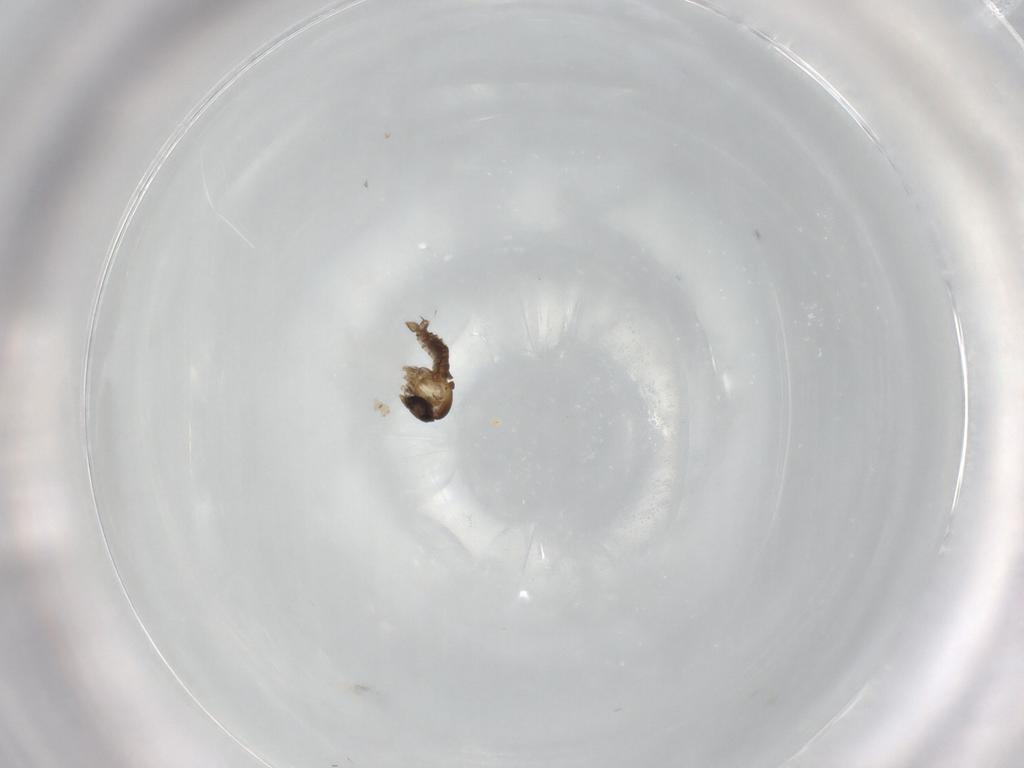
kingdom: Animalia
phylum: Arthropoda
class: Insecta
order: Diptera
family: Psychodidae
